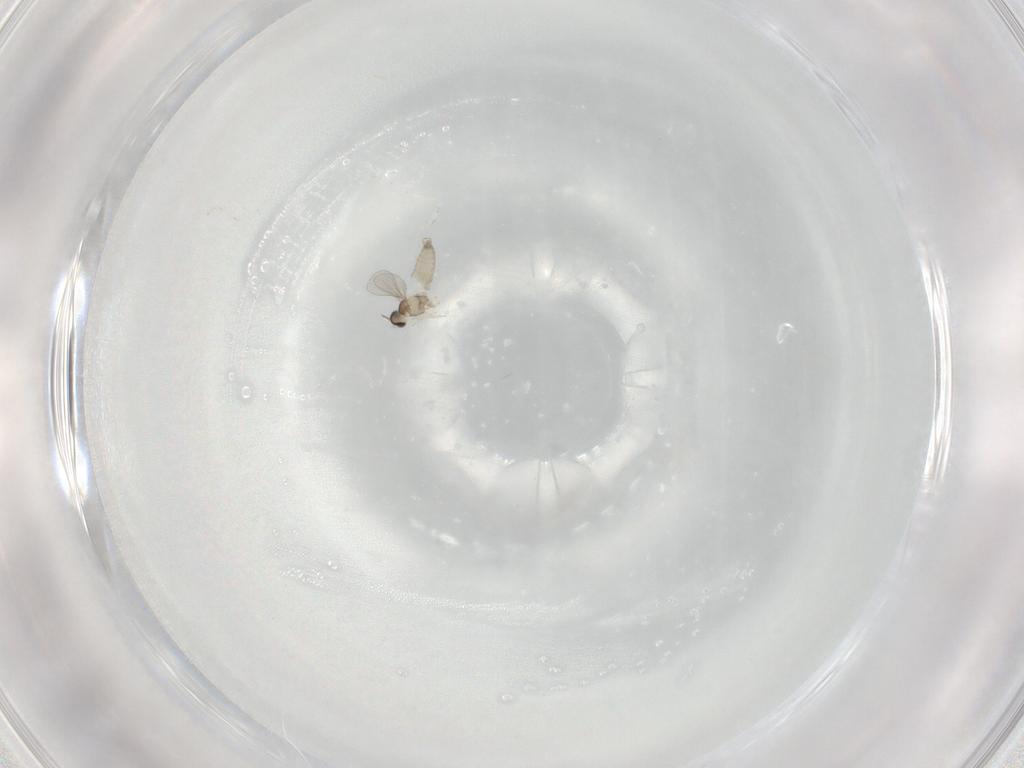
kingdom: Animalia
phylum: Arthropoda
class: Insecta
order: Diptera
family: Cecidomyiidae
